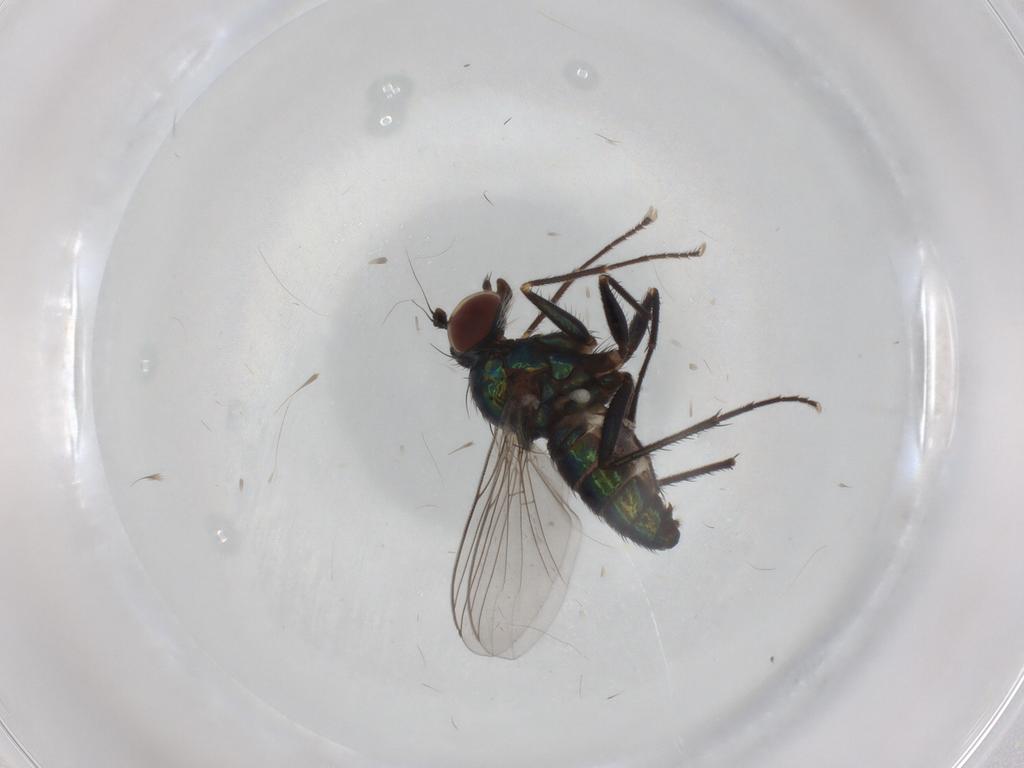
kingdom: Animalia
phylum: Arthropoda
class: Insecta
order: Diptera
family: Dolichopodidae
